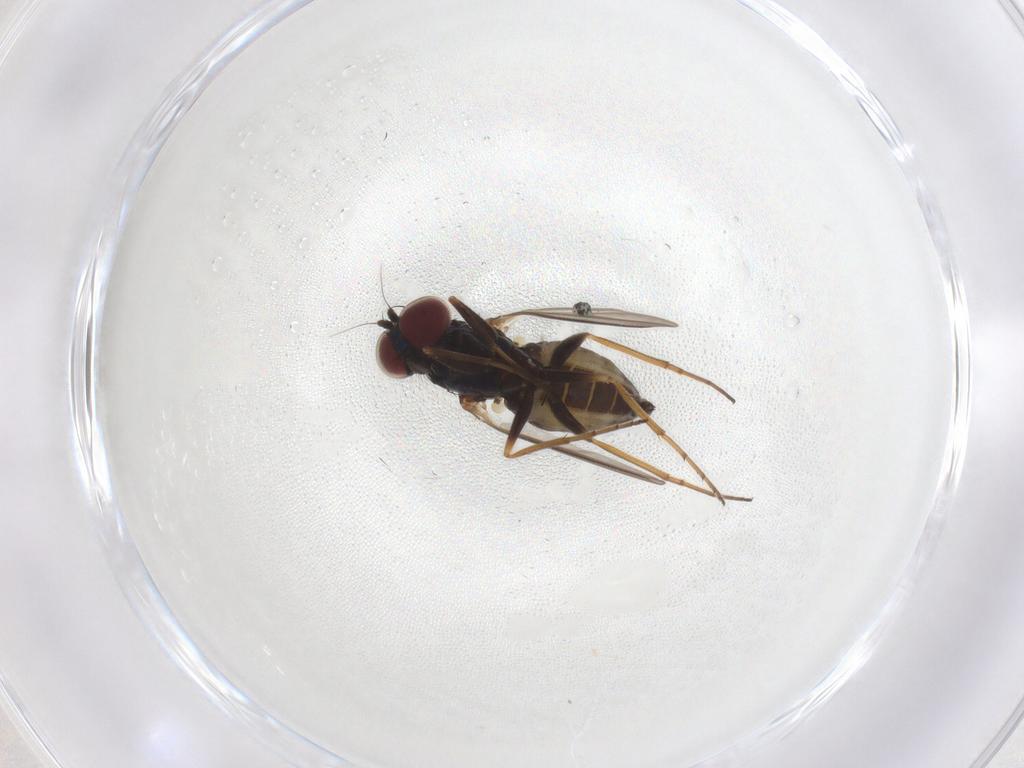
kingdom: Animalia
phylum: Arthropoda
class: Insecta
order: Diptera
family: Dolichopodidae
